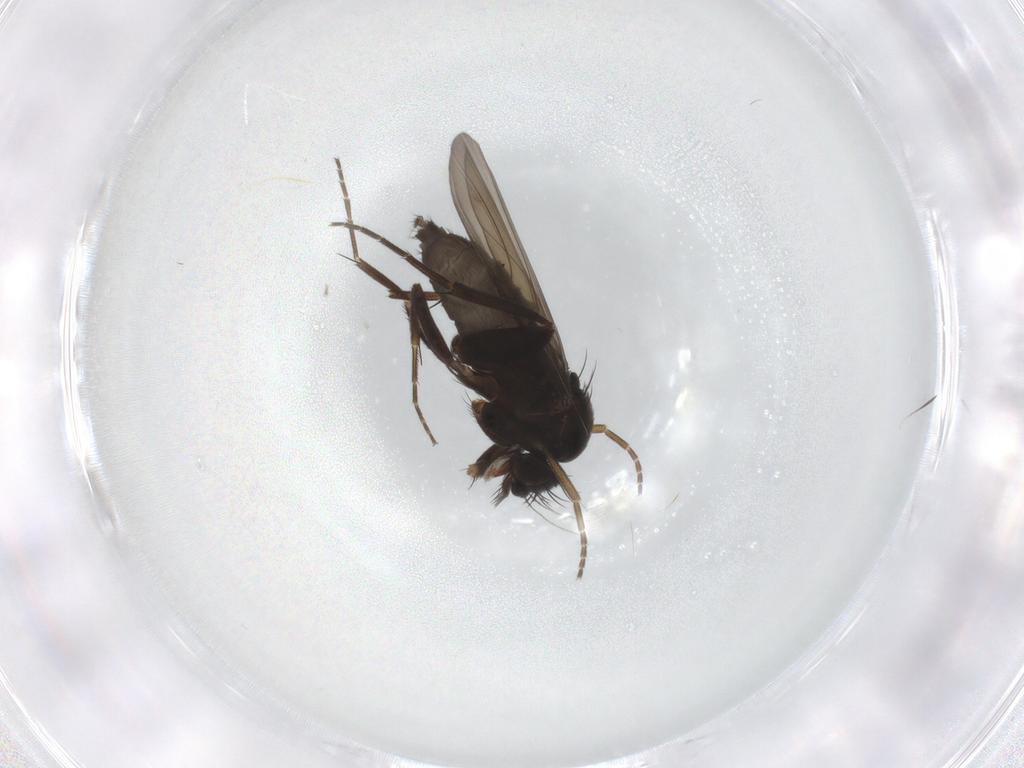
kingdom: Animalia
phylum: Arthropoda
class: Insecta
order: Diptera
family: Phoridae
